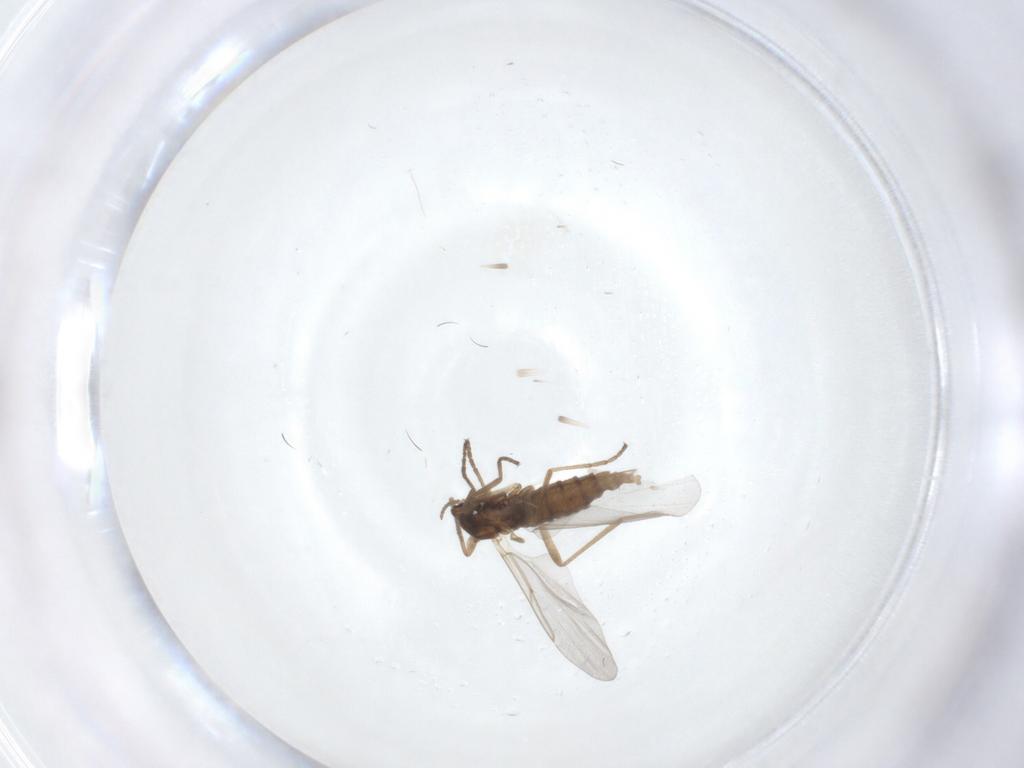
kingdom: Animalia
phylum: Arthropoda
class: Insecta
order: Diptera
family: Cecidomyiidae
